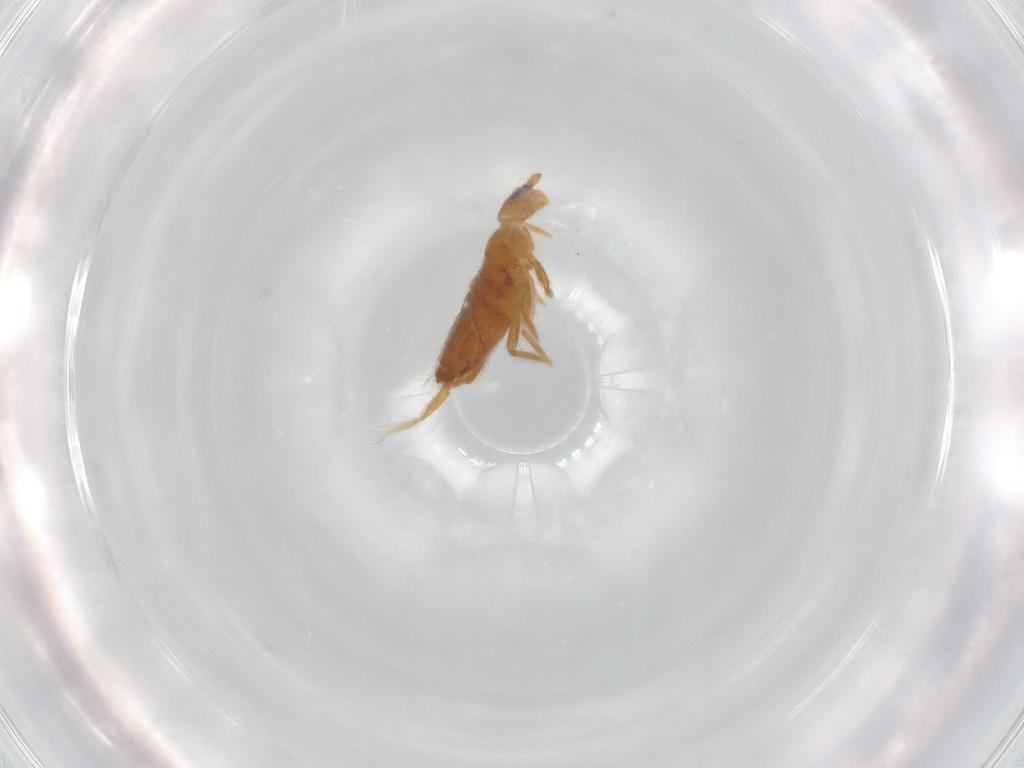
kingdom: Animalia
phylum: Arthropoda
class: Collembola
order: Entomobryomorpha
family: Entomobryidae
